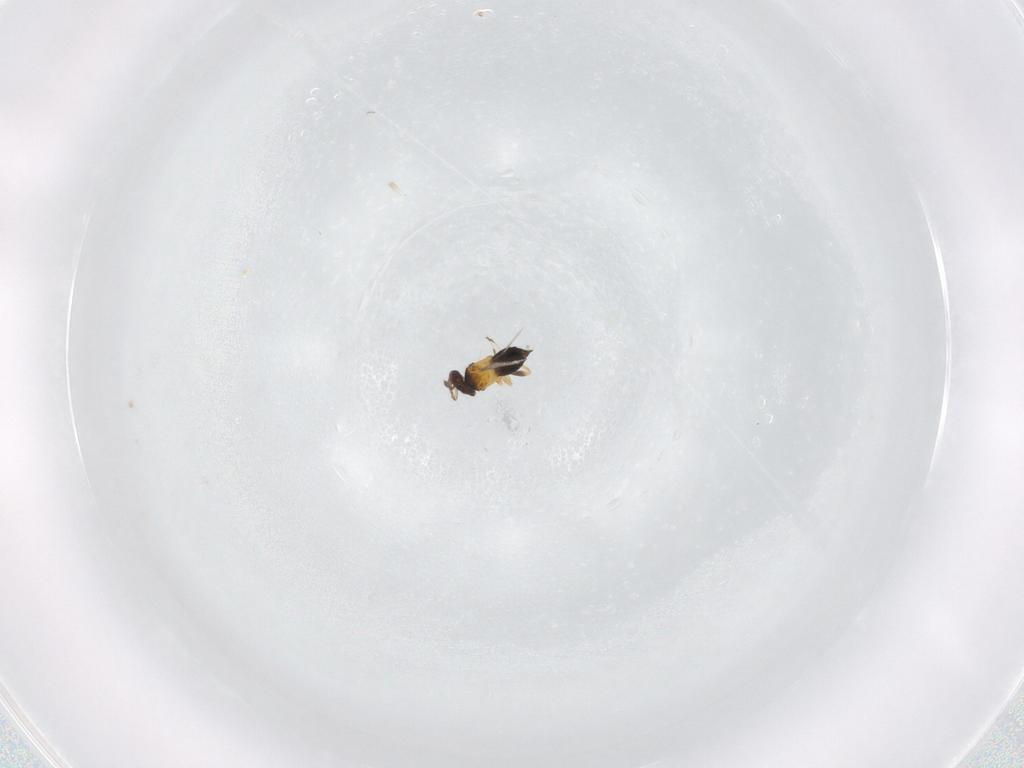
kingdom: Animalia
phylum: Arthropoda
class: Insecta
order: Hymenoptera
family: Trichogrammatidae
